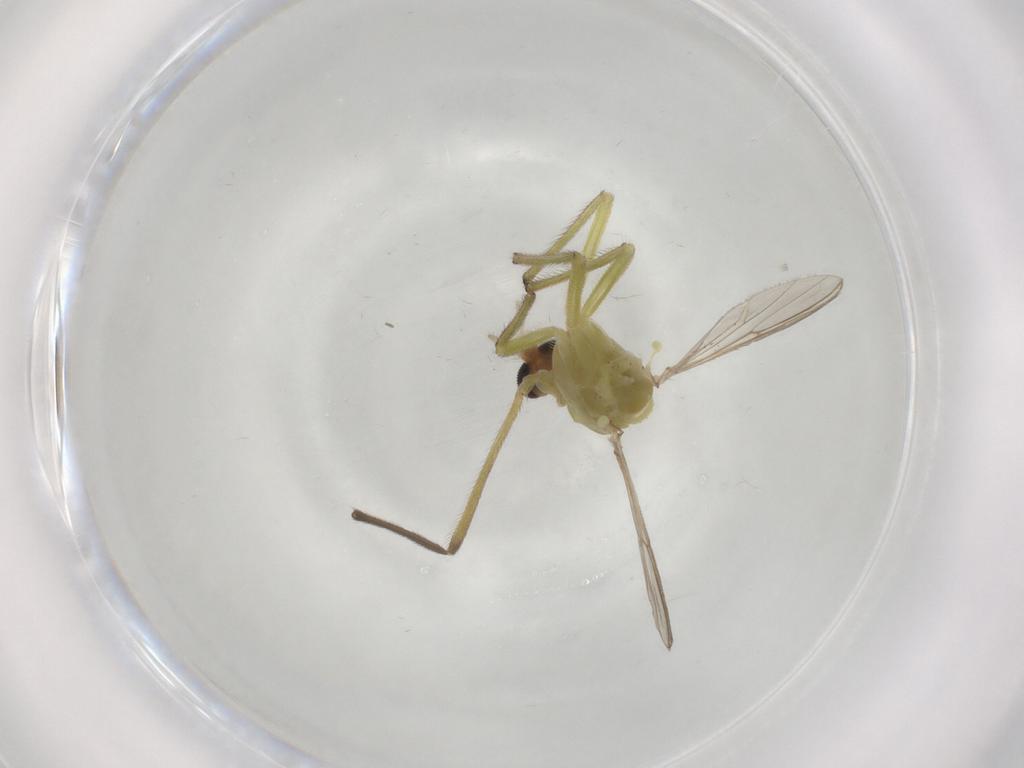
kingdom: Animalia
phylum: Arthropoda
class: Insecta
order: Diptera
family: Chironomidae
